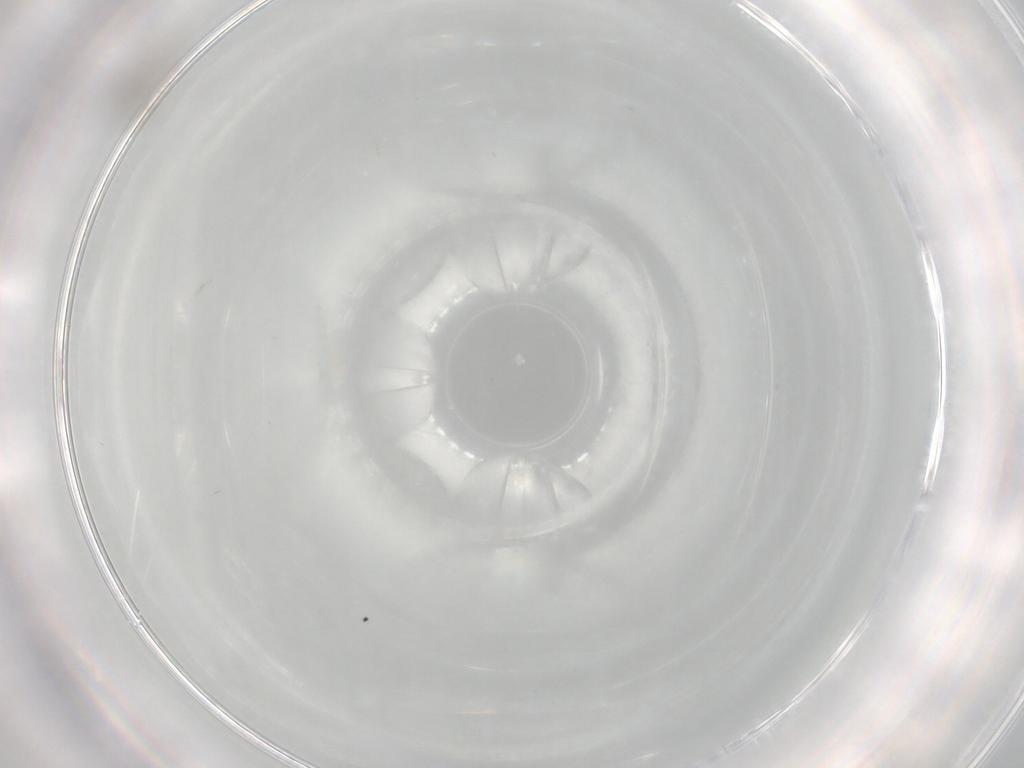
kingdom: Animalia
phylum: Arthropoda
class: Insecta
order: Diptera
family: Cecidomyiidae
